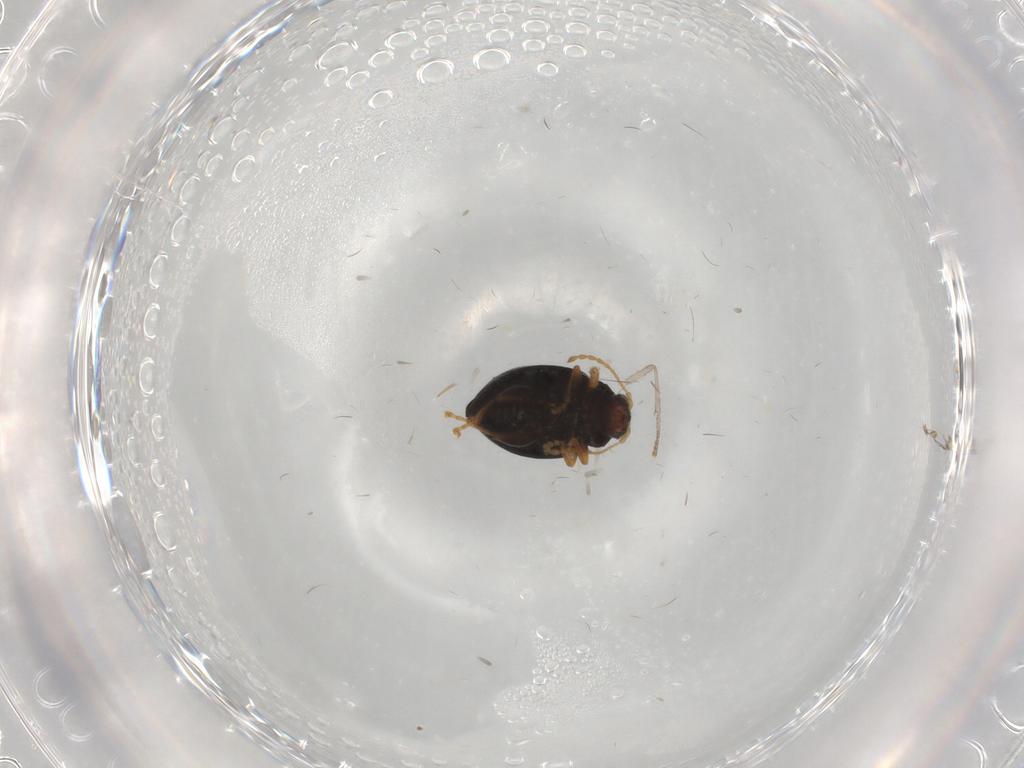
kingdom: Animalia
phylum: Arthropoda
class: Insecta
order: Coleoptera
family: Chrysomelidae
